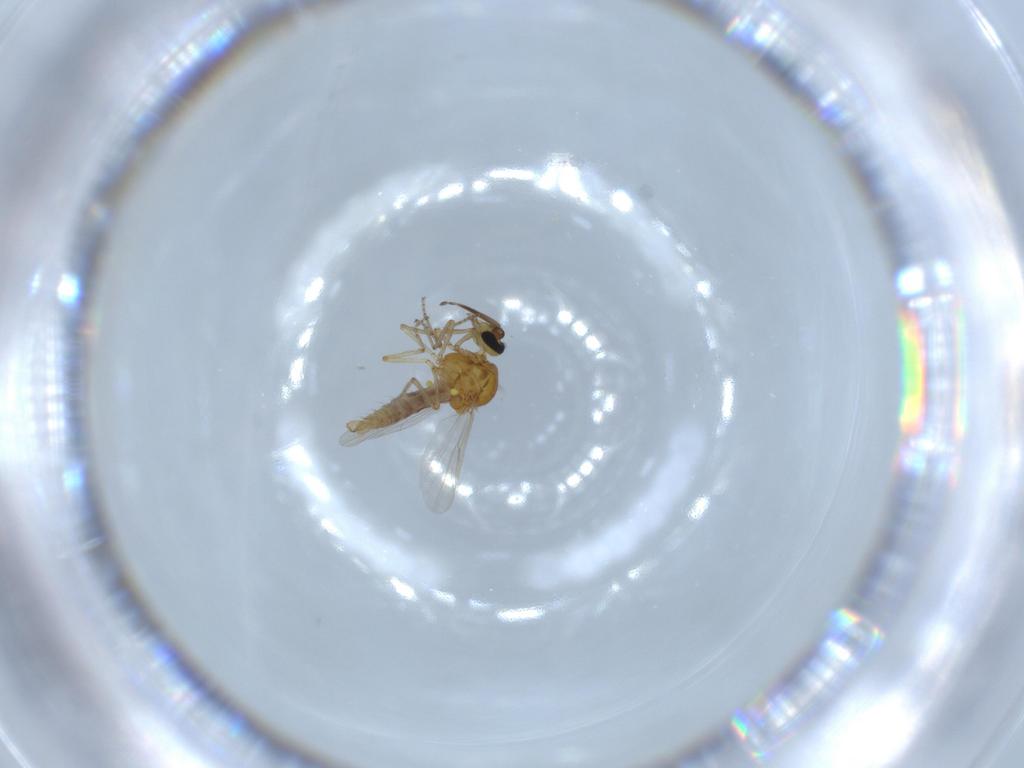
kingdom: Animalia
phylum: Arthropoda
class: Insecta
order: Diptera
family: Ceratopogonidae
